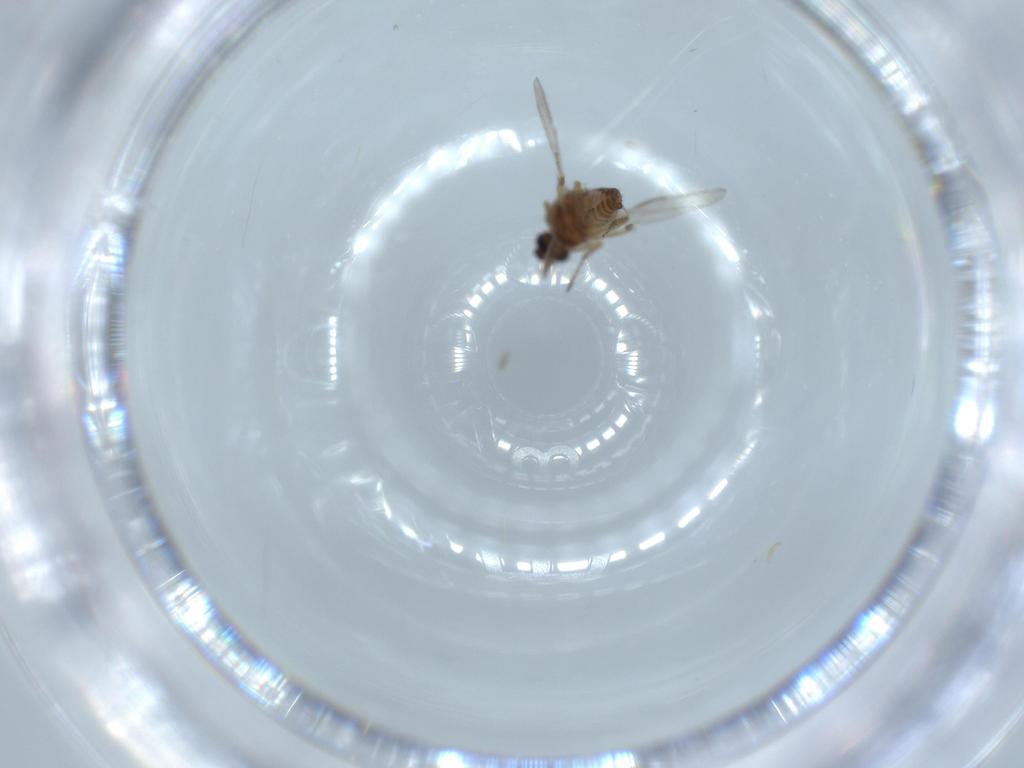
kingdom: Animalia
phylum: Arthropoda
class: Insecta
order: Diptera
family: Ceratopogonidae
